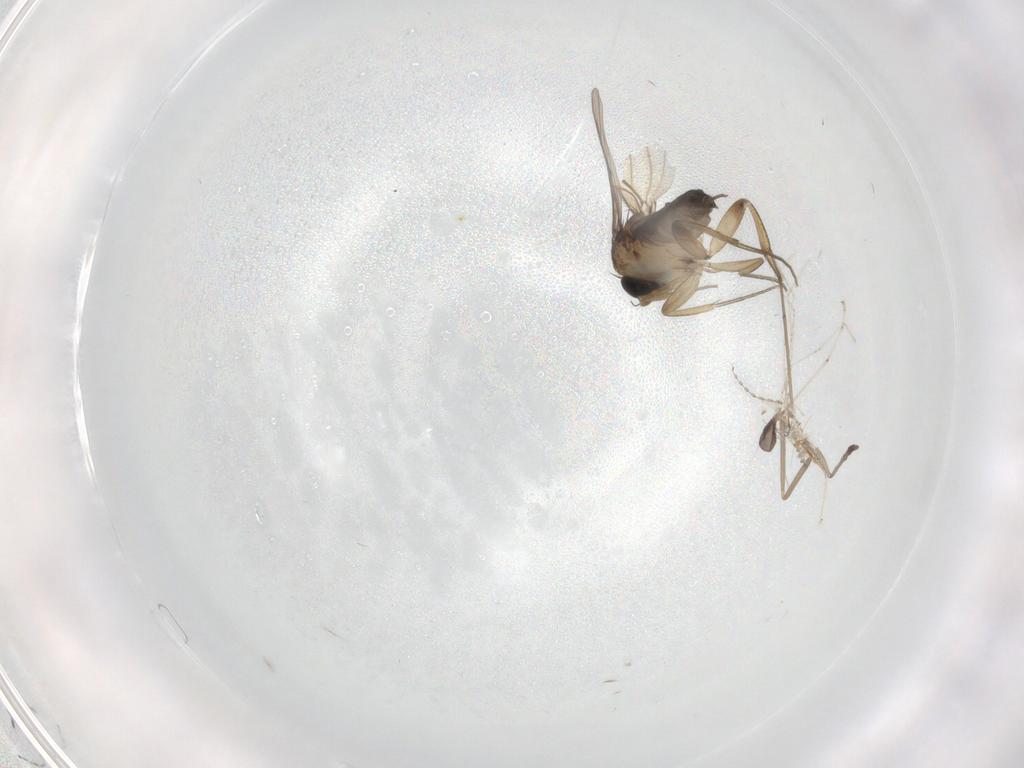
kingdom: Animalia
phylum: Arthropoda
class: Insecta
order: Diptera
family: Phoridae
